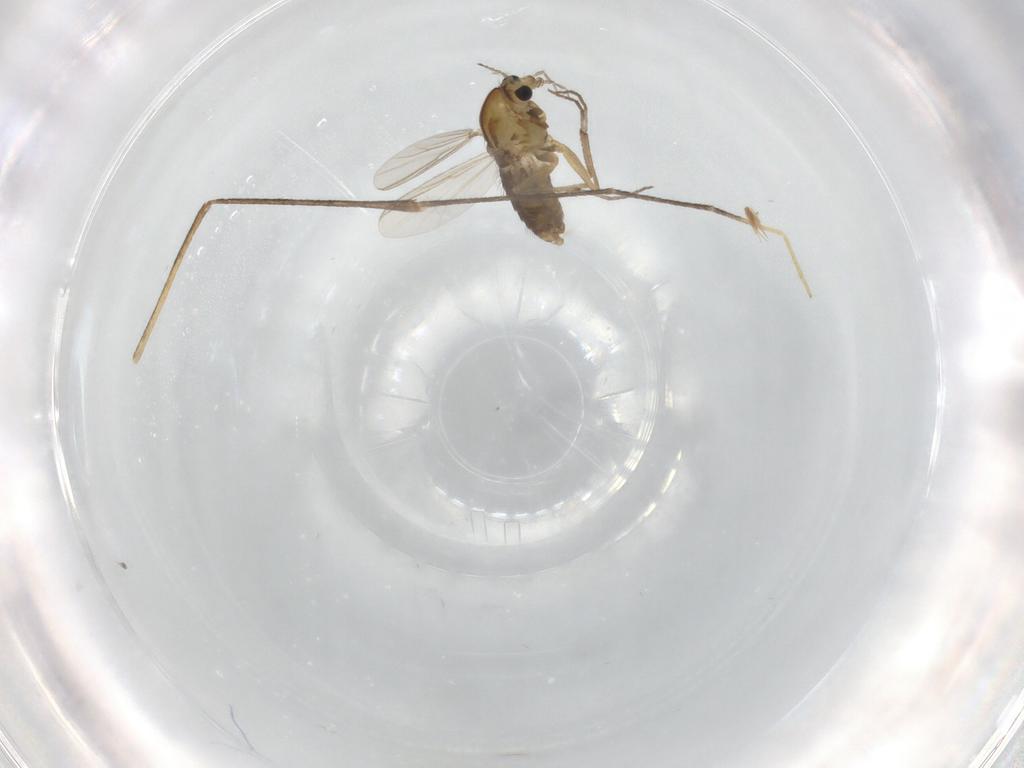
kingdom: Animalia
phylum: Arthropoda
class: Insecta
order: Diptera
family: Chironomidae
